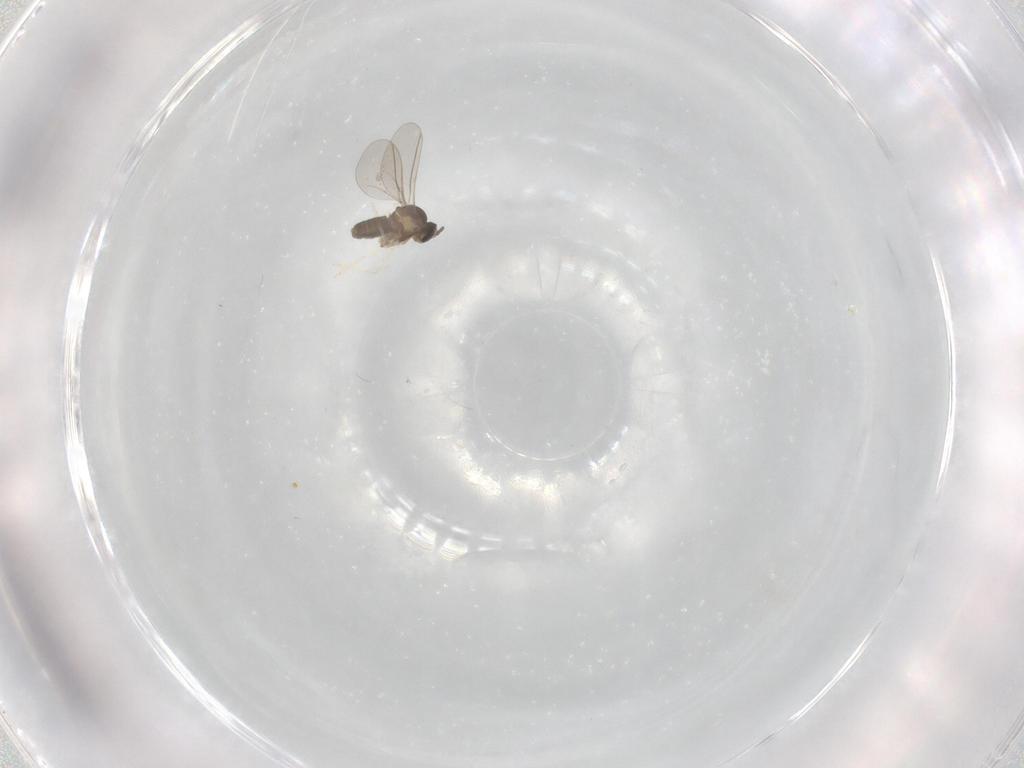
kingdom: Animalia
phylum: Arthropoda
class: Insecta
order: Diptera
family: Cecidomyiidae
